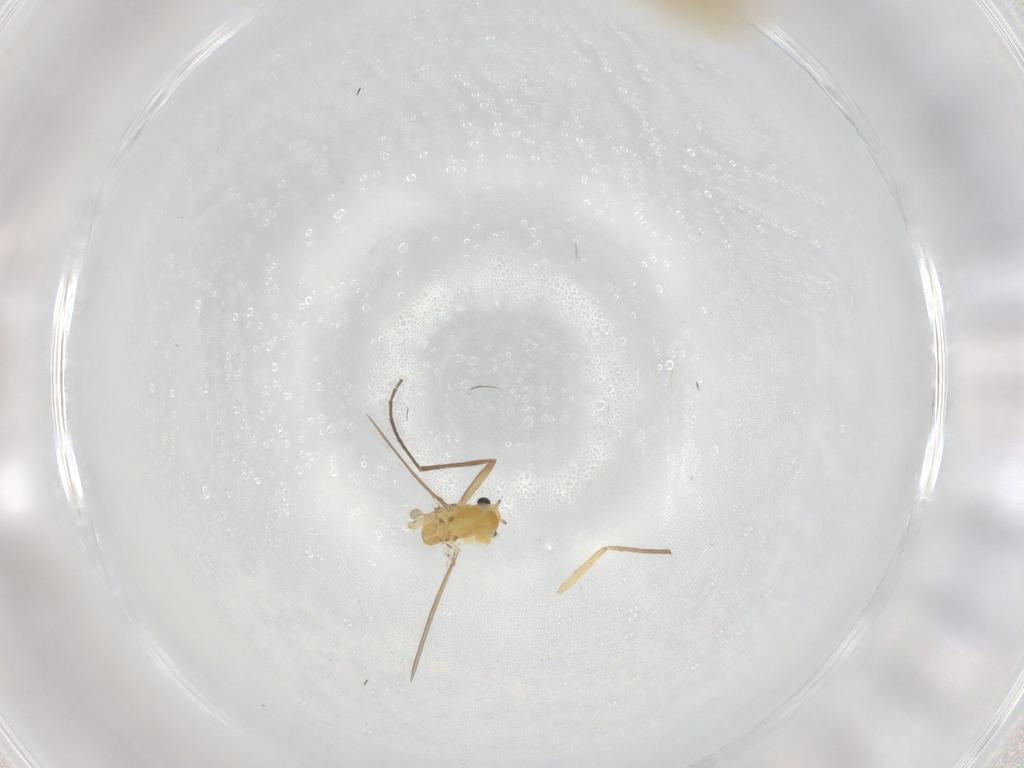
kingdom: Animalia
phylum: Arthropoda
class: Insecta
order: Diptera
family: Chironomidae
